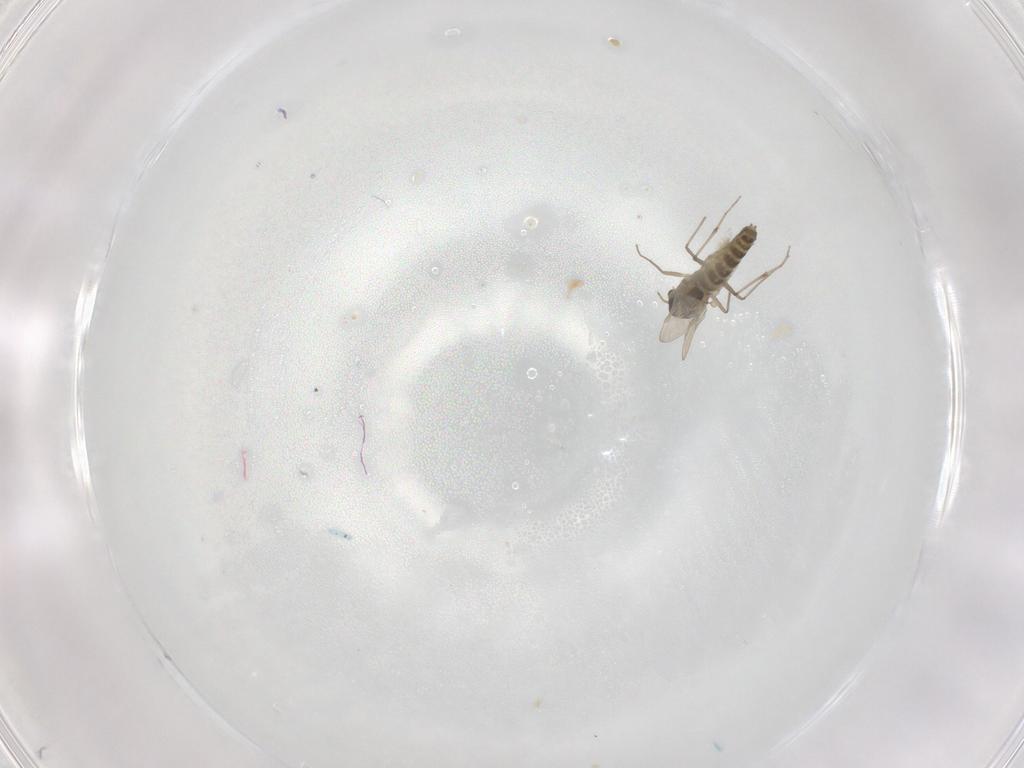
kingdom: Animalia
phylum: Arthropoda
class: Insecta
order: Diptera
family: Chironomidae
